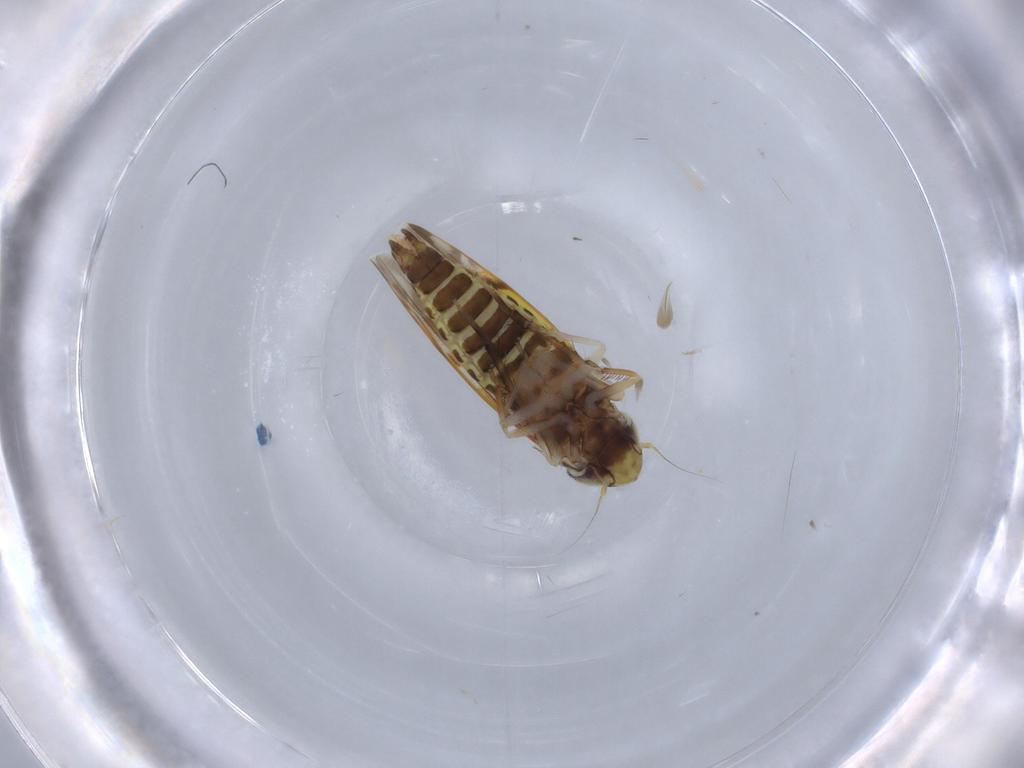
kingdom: Animalia
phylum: Arthropoda
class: Insecta
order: Hemiptera
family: Cicadellidae
